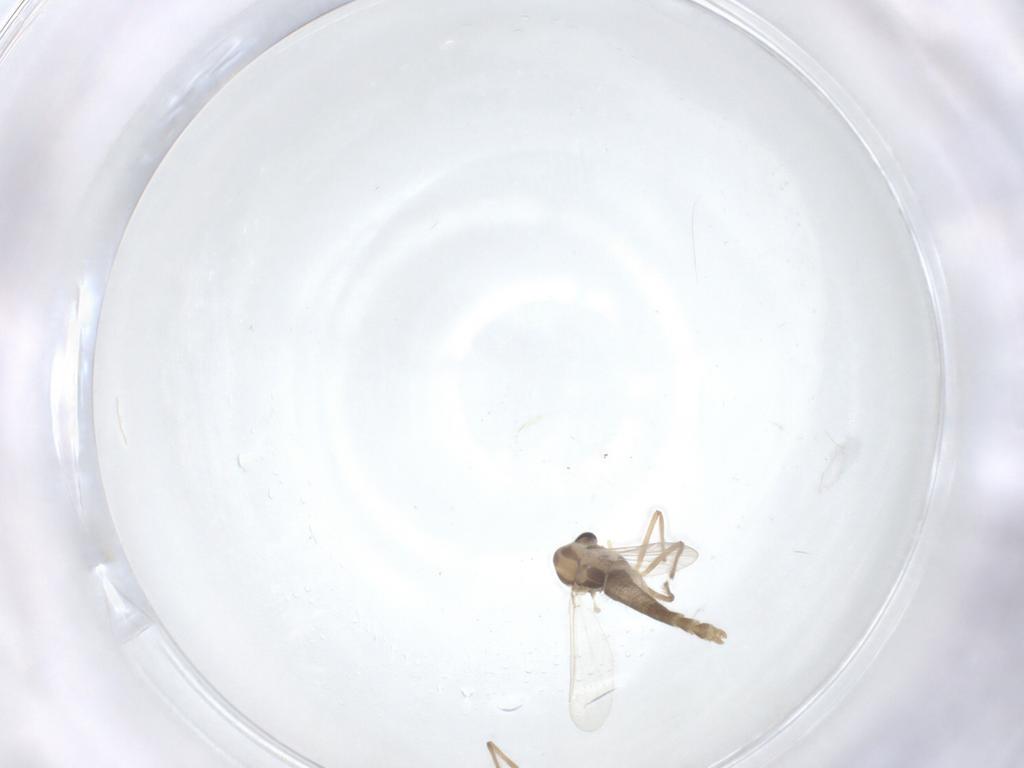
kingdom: Animalia
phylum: Arthropoda
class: Insecta
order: Diptera
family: Chironomidae
